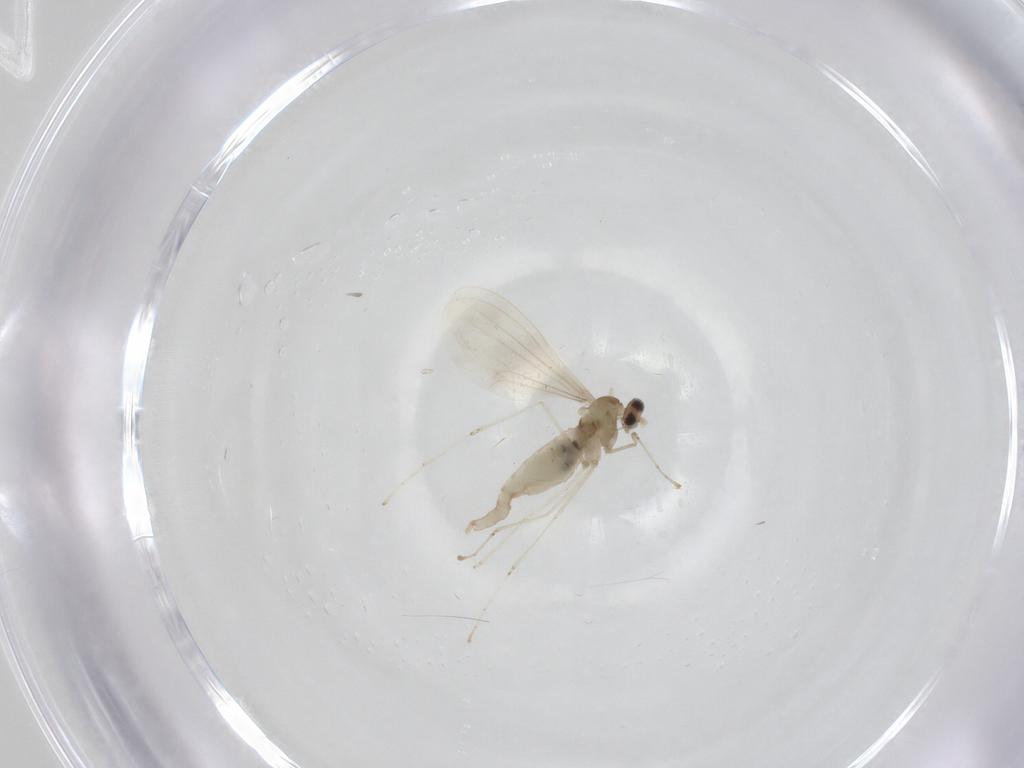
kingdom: Animalia
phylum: Arthropoda
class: Insecta
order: Diptera
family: Cecidomyiidae
